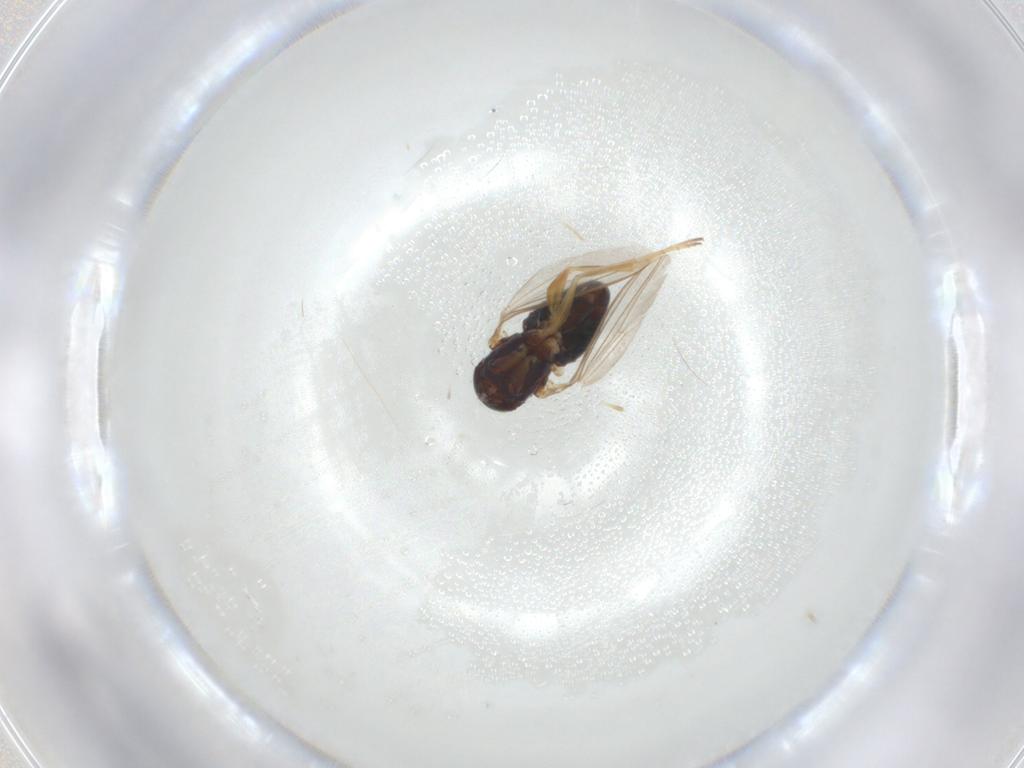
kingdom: Animalia
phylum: Arthropoda
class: Insecta
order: Diptera
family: Dolichopodidae
